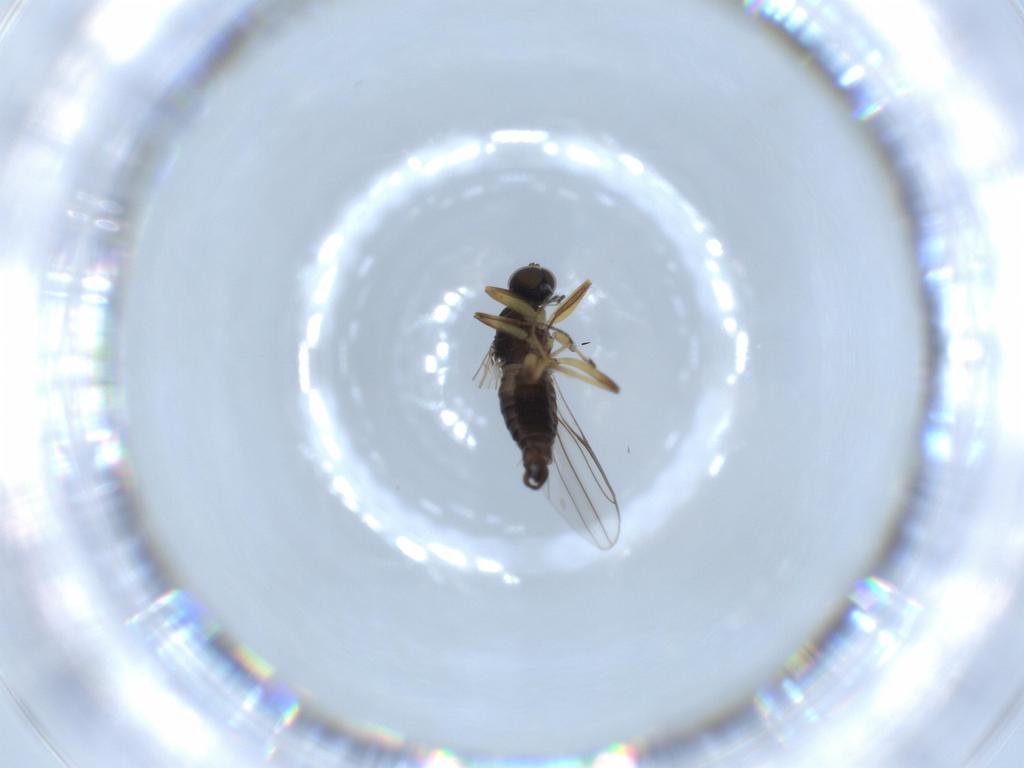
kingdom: Animalia
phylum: Arthropoda
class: Insecta
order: Diptera
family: Hybotidae
